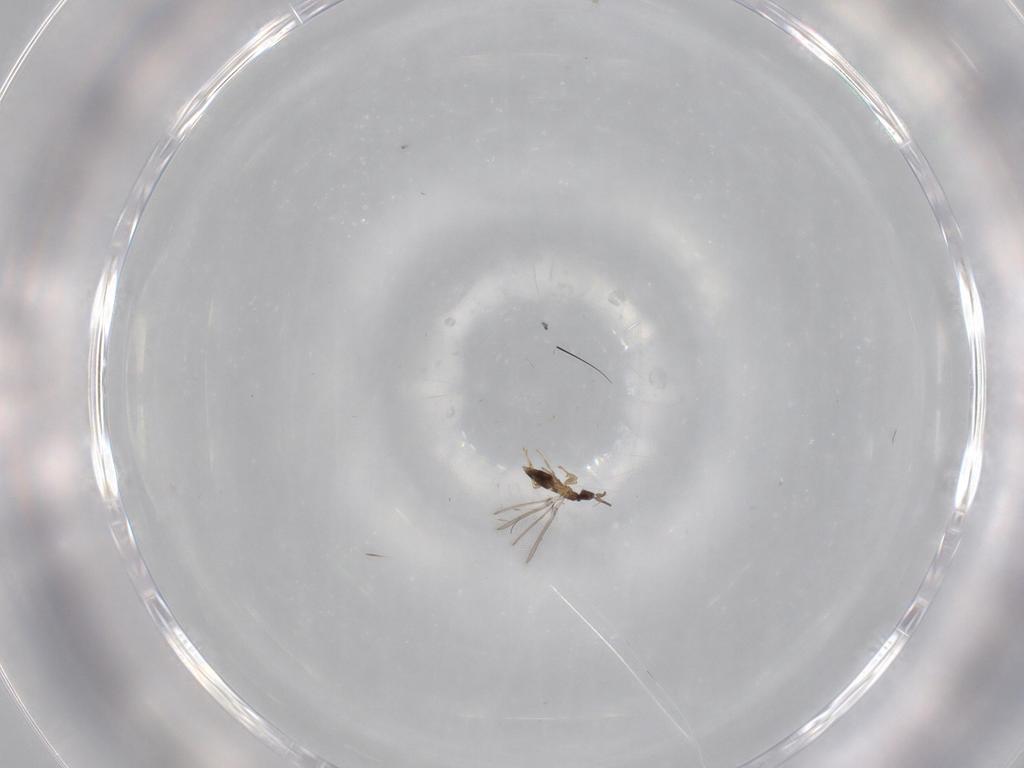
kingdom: Animalia
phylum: Arthropoda
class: Insecta
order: Hymenoptera
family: Mymaridae
